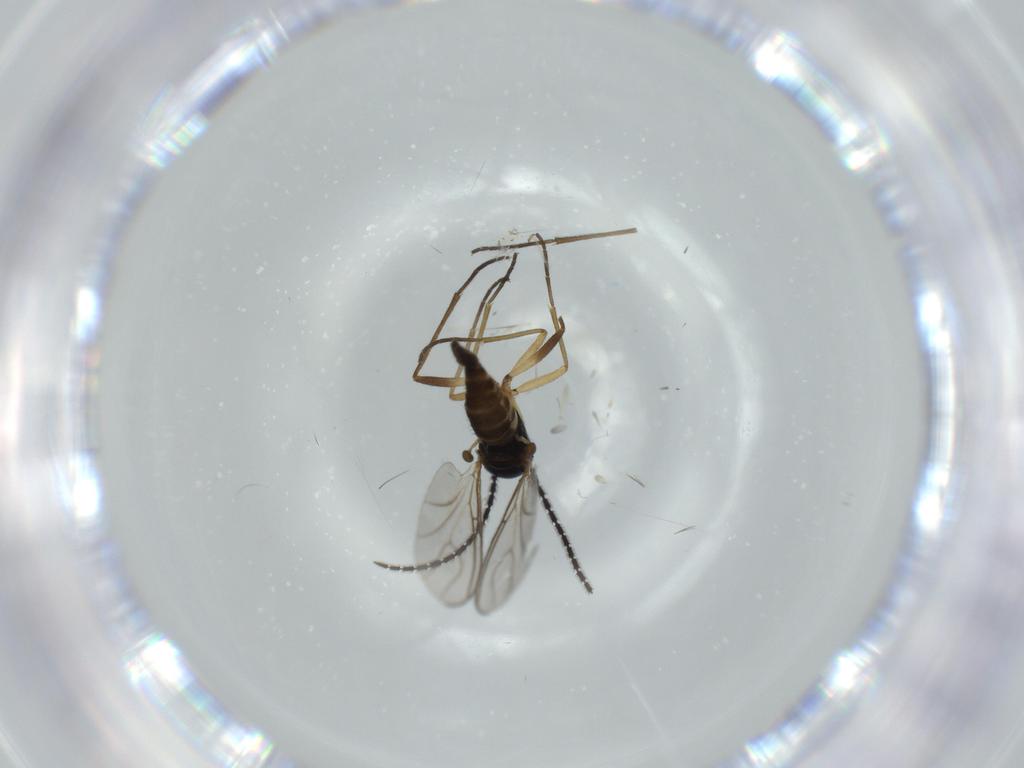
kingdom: Animalia
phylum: Arthropoda
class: Insecta
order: Diptera
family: Sciaridae
